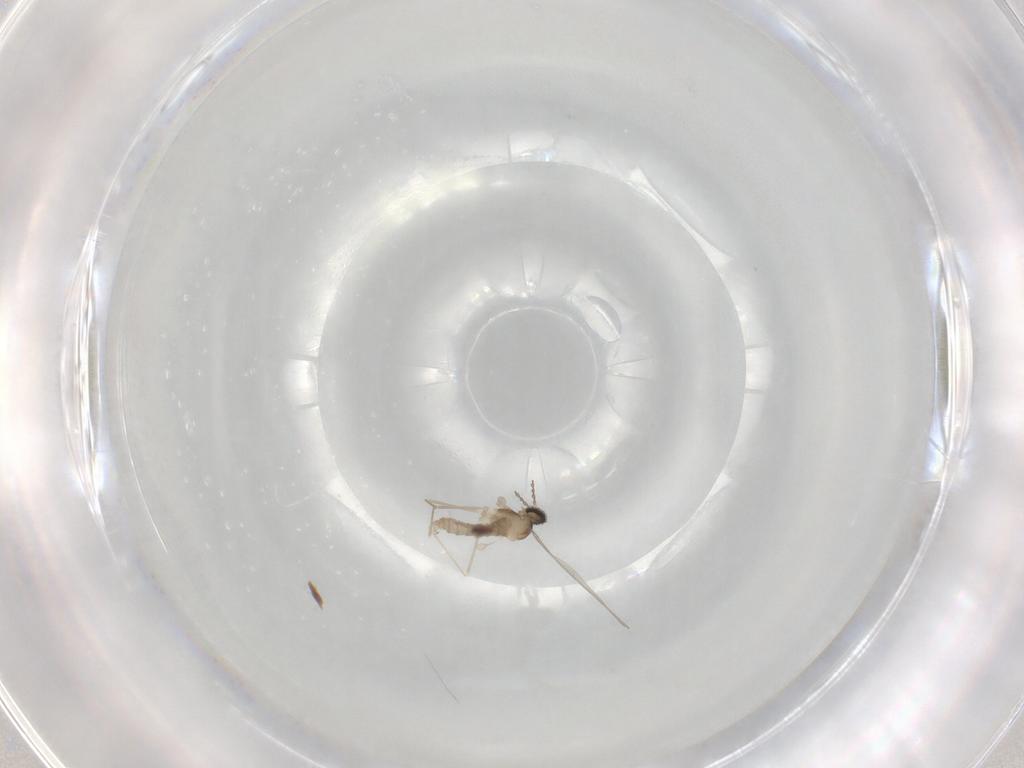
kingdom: Animalia
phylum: Arthropoda
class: Insecta
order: Diptera
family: Cecidomyiidae
